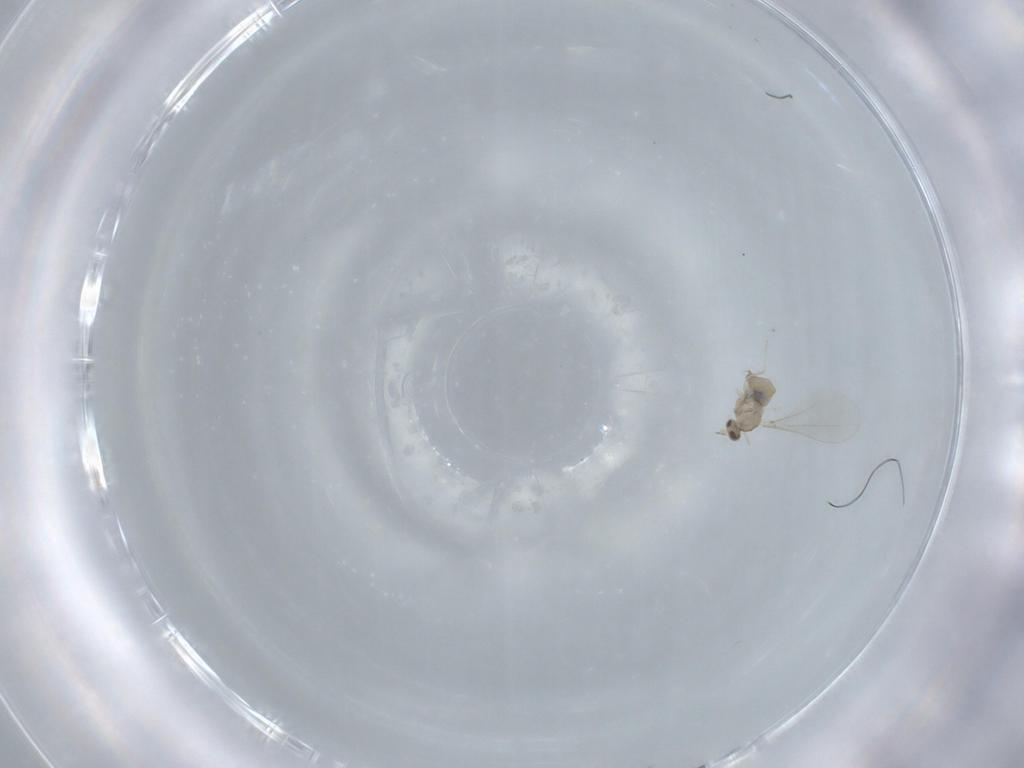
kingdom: Animalia
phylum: Arthropoda
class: Insecta
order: Diptera
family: Cecidomyiidae
